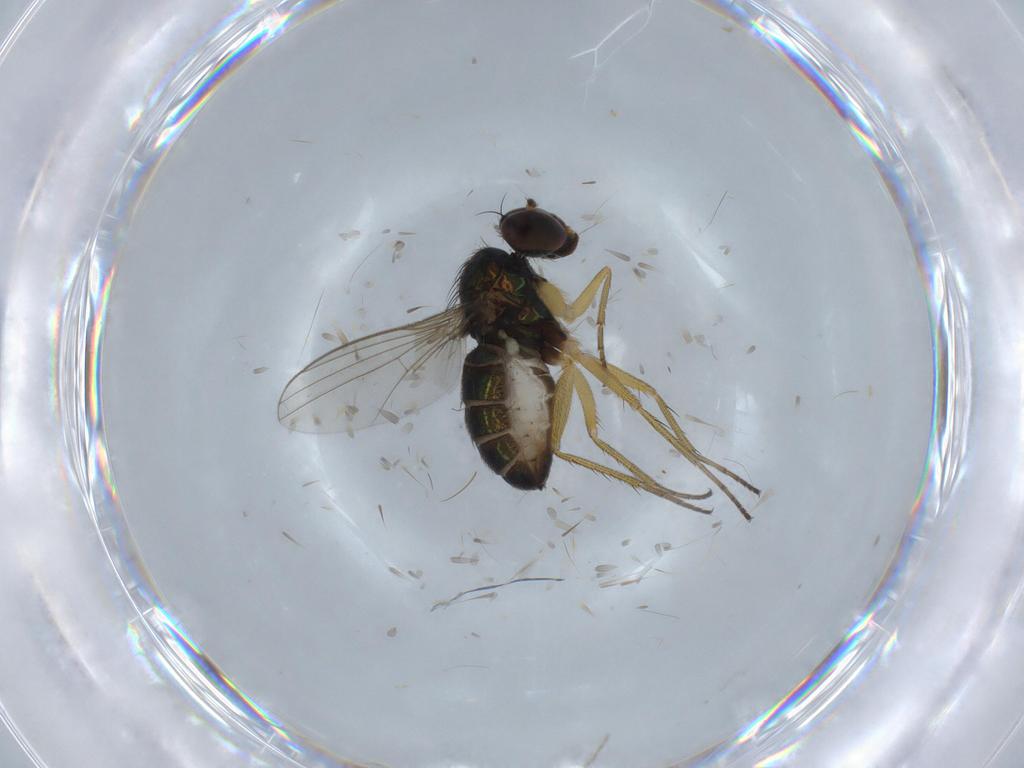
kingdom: Animalia
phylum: Arthropoda
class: Insecta
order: Diptera
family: Dolichopodidae
